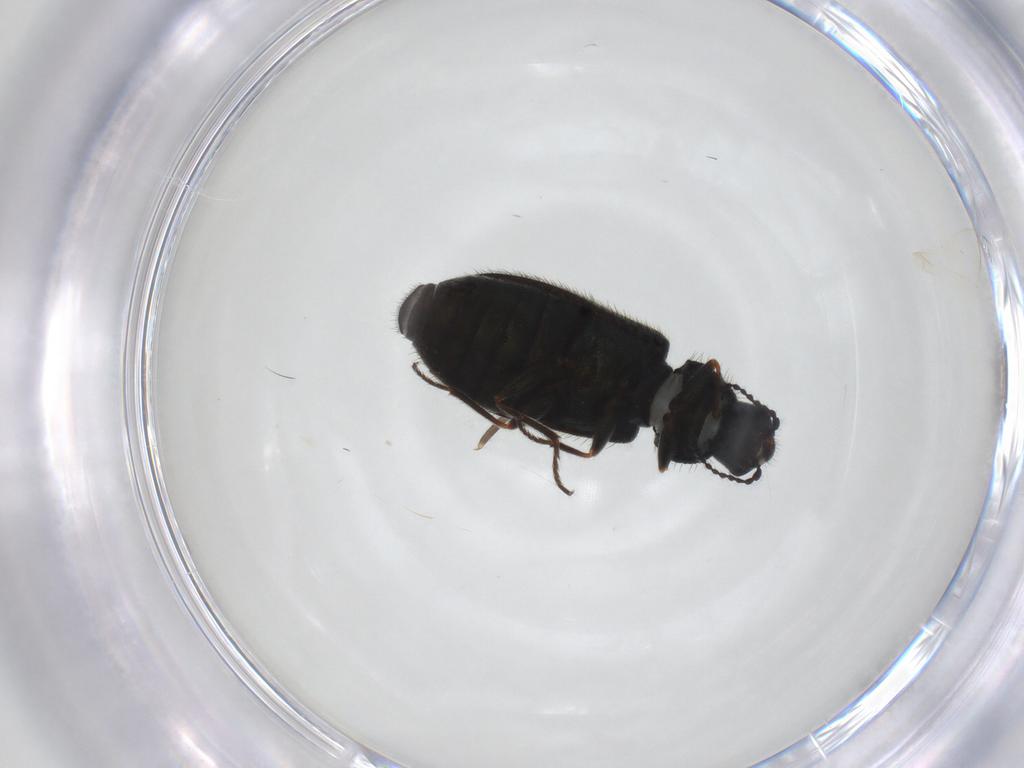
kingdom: Animalia
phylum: Arthropoda
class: Insecta
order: Coleoptera
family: Melyridae
